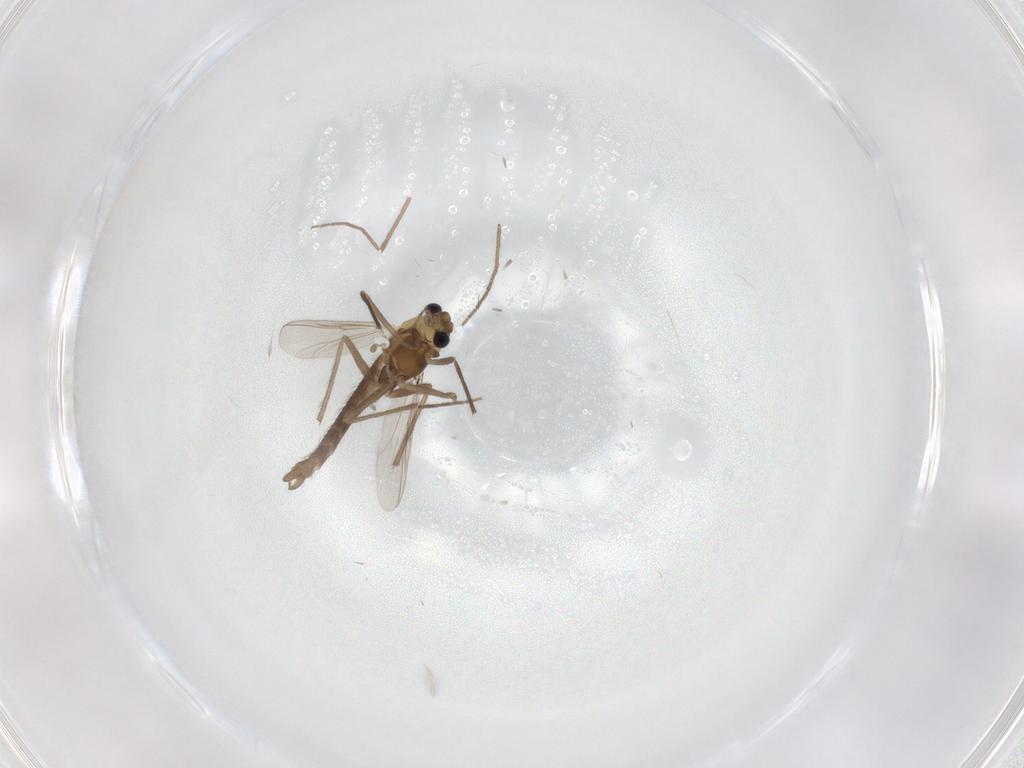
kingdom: Animalia
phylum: Arthropoda
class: Insecta
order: Diptera
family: Chironomidae
